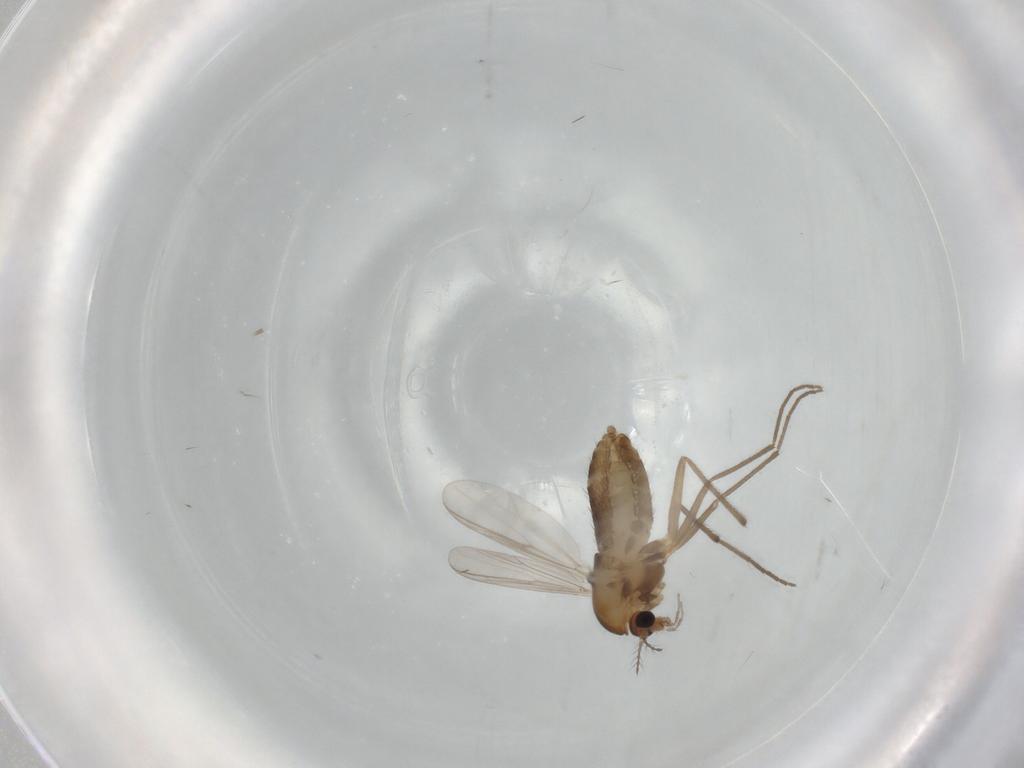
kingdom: Animalia
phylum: Arthropoda
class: Insecta
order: Diptera
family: Chironomidae
